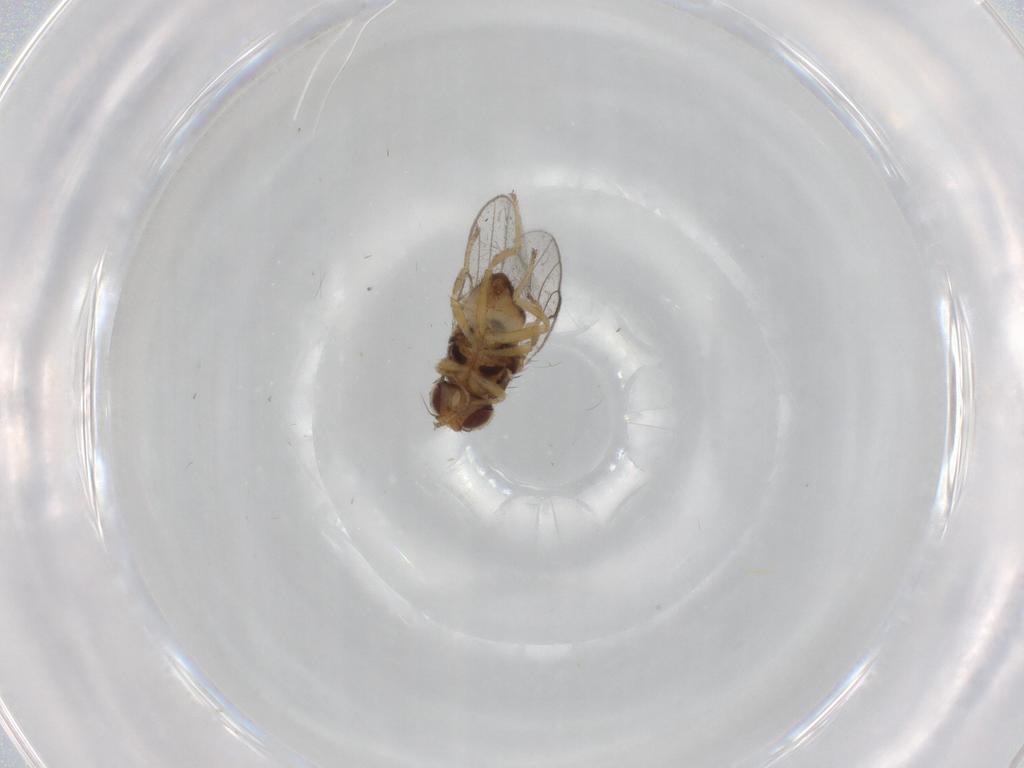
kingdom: Animalia
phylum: Arthropoda
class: Insecta
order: Diptera
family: Chloropidae
